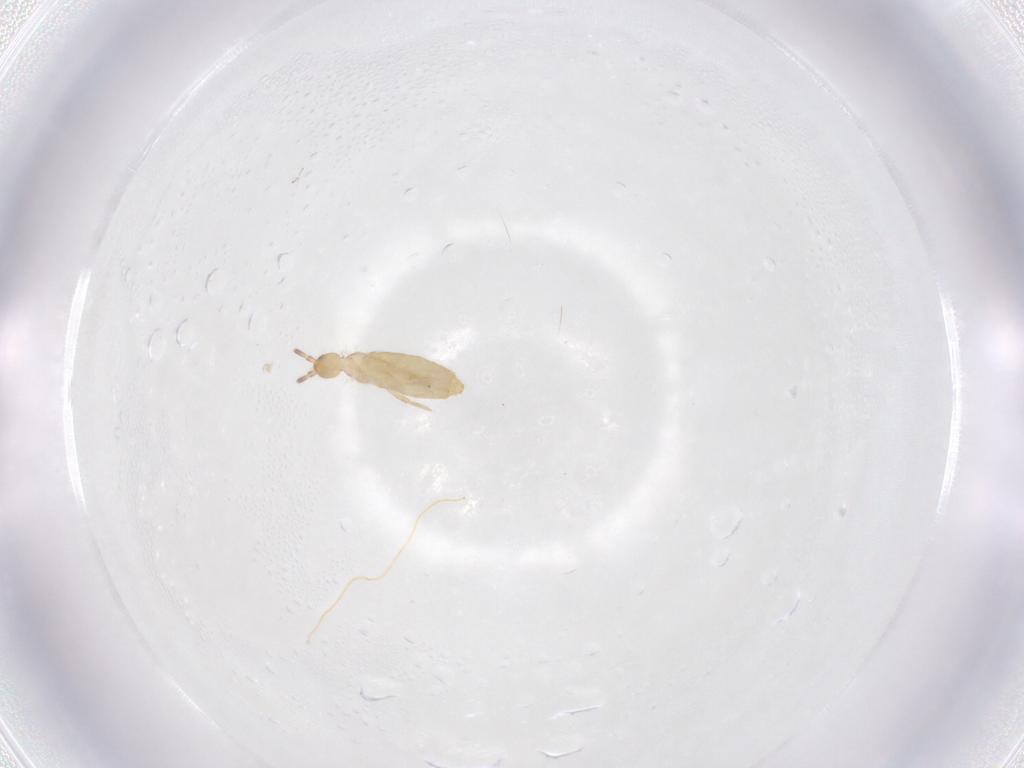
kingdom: Animalia
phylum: Arthropoda
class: Collembola
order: Entomobryomorpha
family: Entomobryidae
